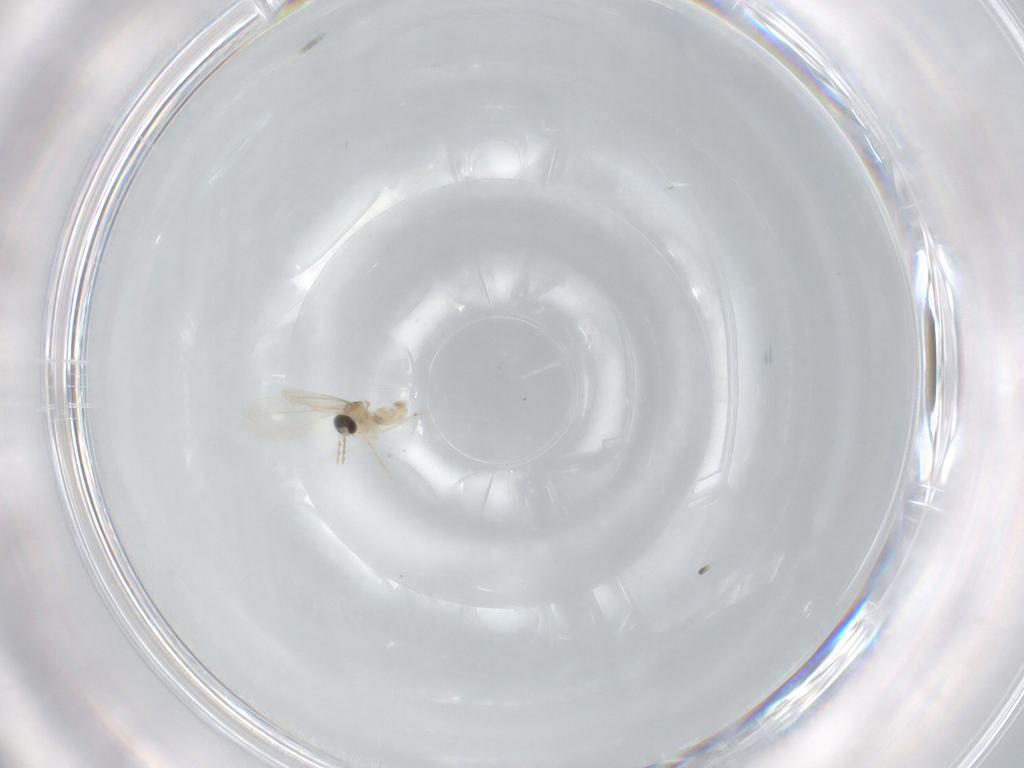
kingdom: Animalia
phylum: Arthropoda
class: Insecta
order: Diptera
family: Cecidomyiidae
